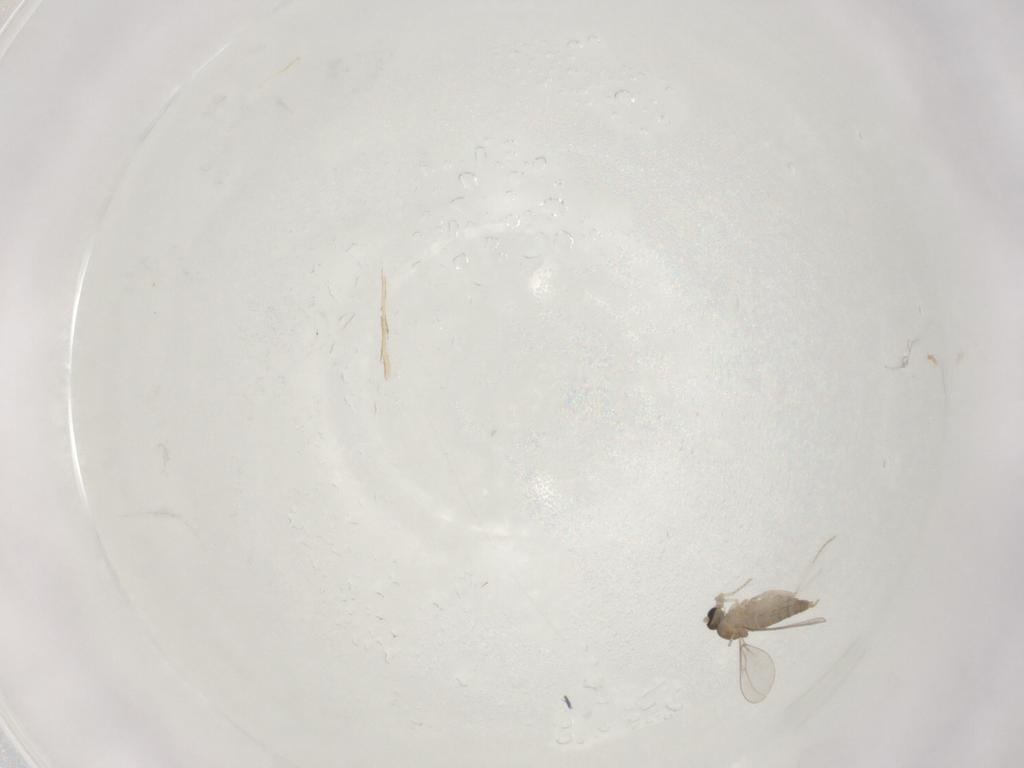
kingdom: Animalia
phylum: Arthropoda
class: Insecta
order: Diptera
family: Cecidomyiidae
